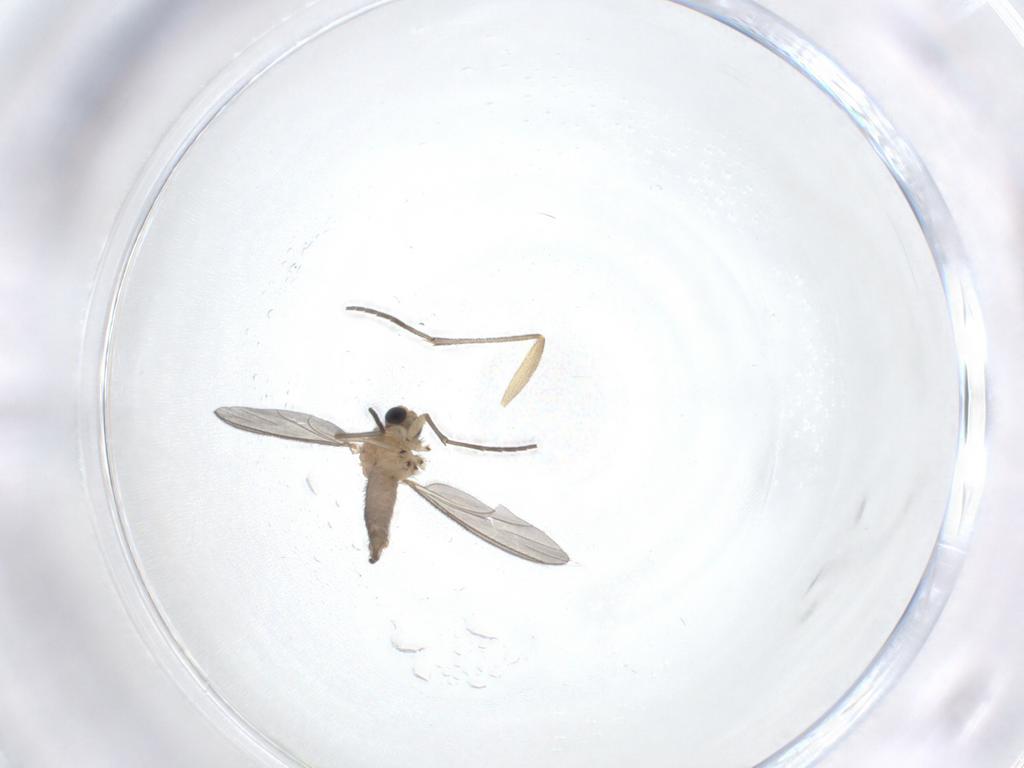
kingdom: Animalia
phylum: Arthropoda
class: Insecta
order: Diptera
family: Sciaridae
